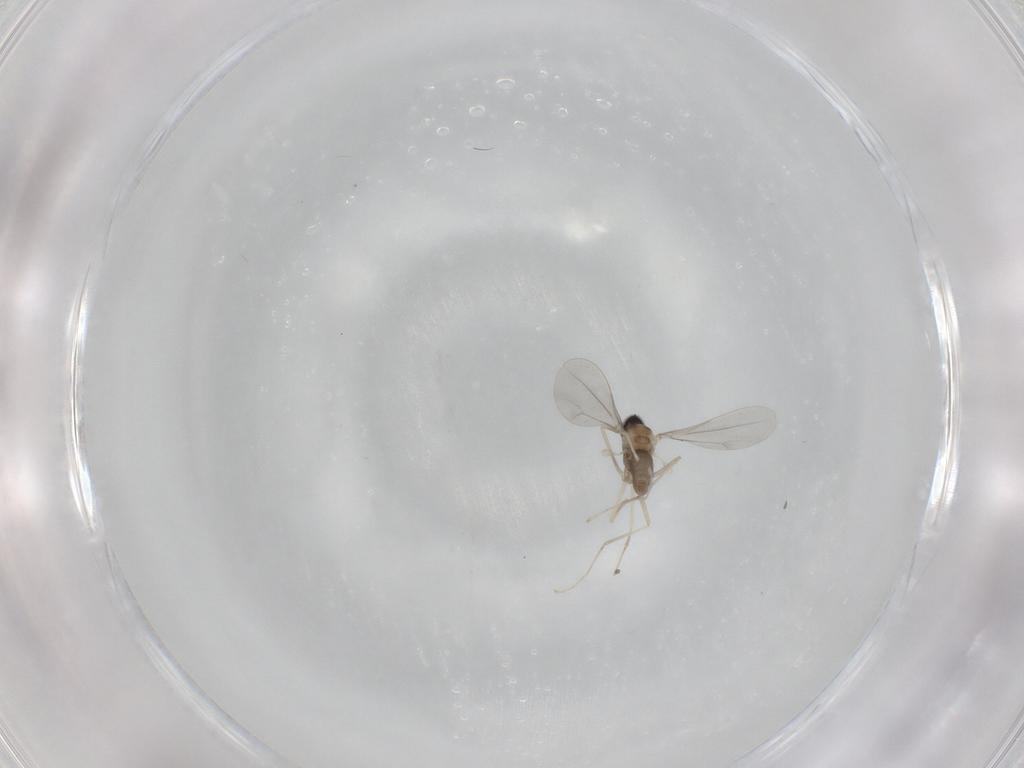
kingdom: Animalia
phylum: Arthropoda
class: Insecta
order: Diptera
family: Cecidomyiidae
